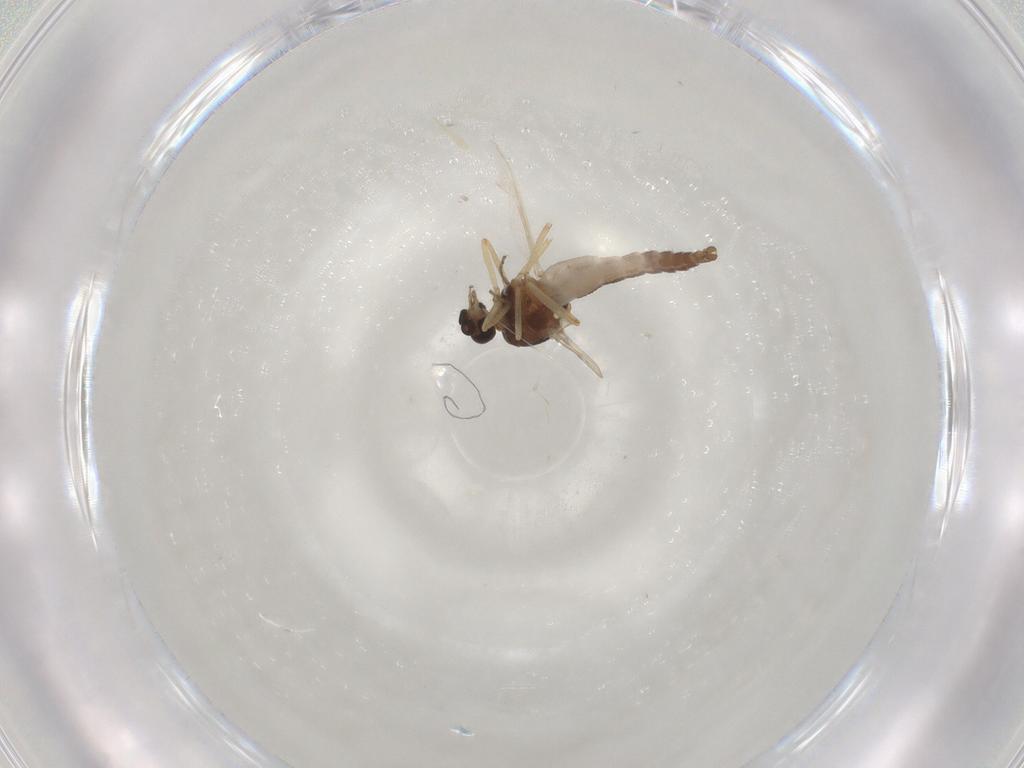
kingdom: Animalia
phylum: Arthropoda
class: Insecta
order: Diptera
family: Ceratopogonidae
